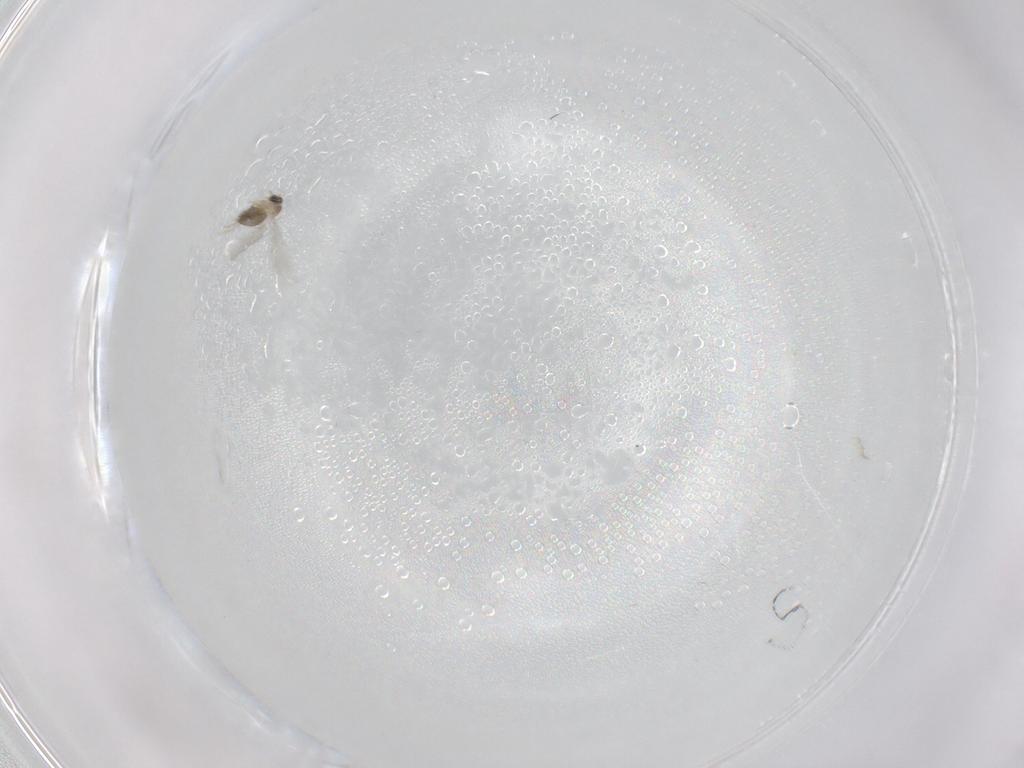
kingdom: Animalia
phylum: Arthropoda
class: Insecta
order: Diptera
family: Cecidomyiidae
